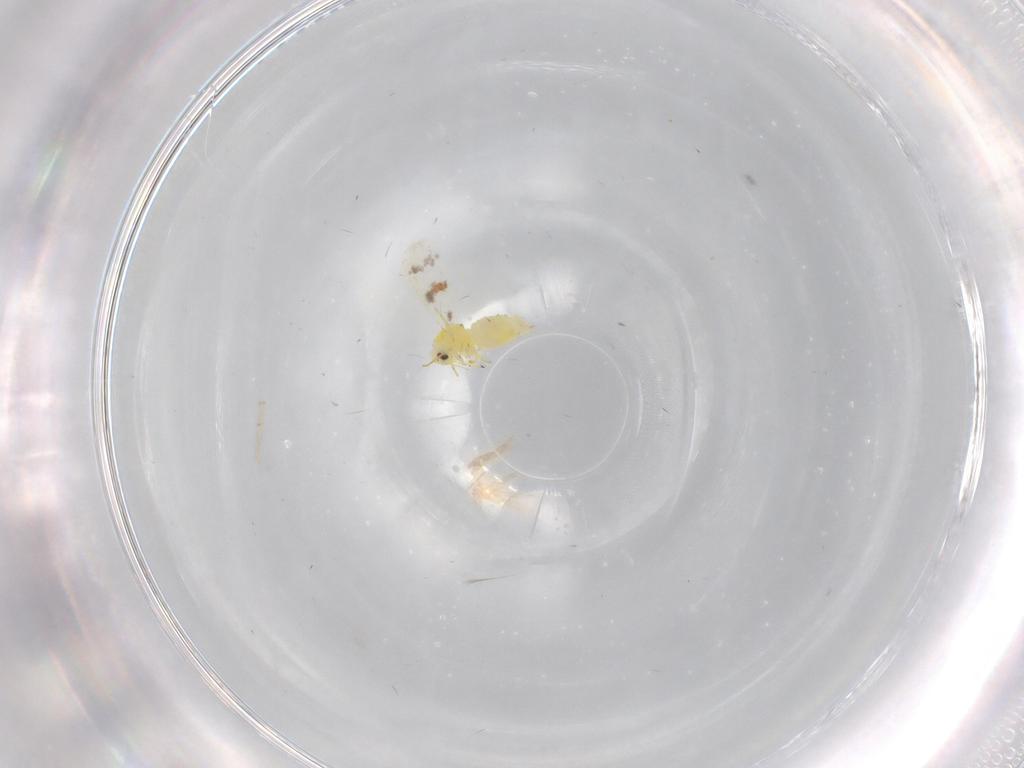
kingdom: Animalia
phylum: Arthropoda
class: Insecta
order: Hemiptera
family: Aleyrodidae
